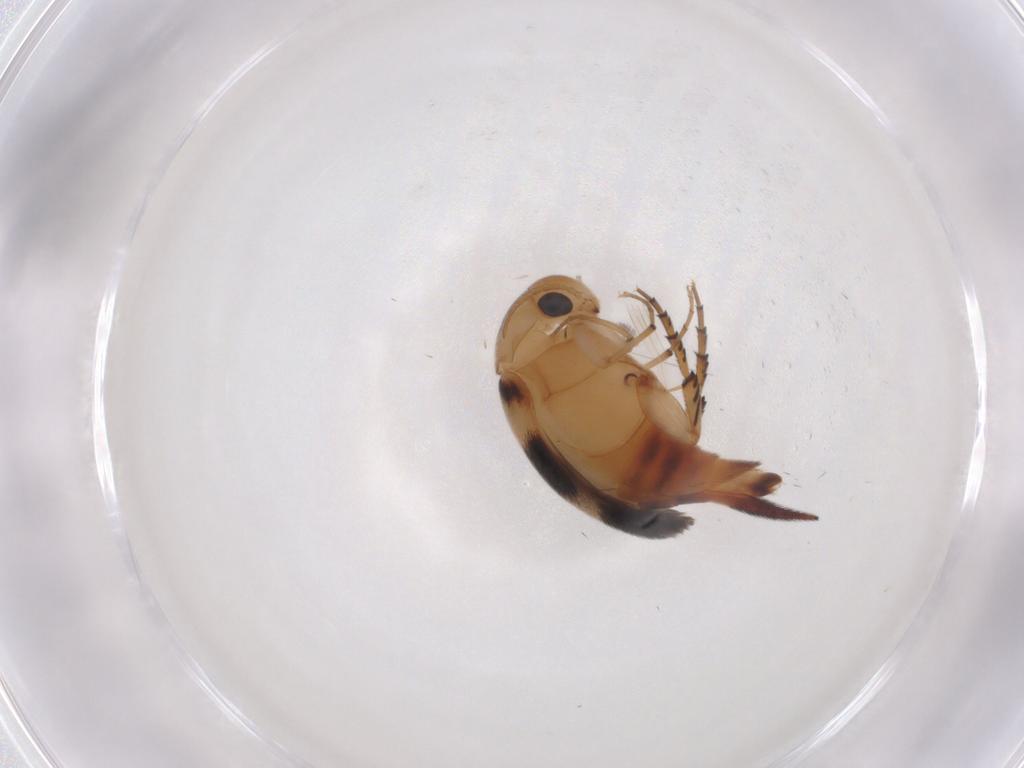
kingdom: Animalia
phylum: Arthropoda
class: Insecta
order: Coleoptera
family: Mordellidae
